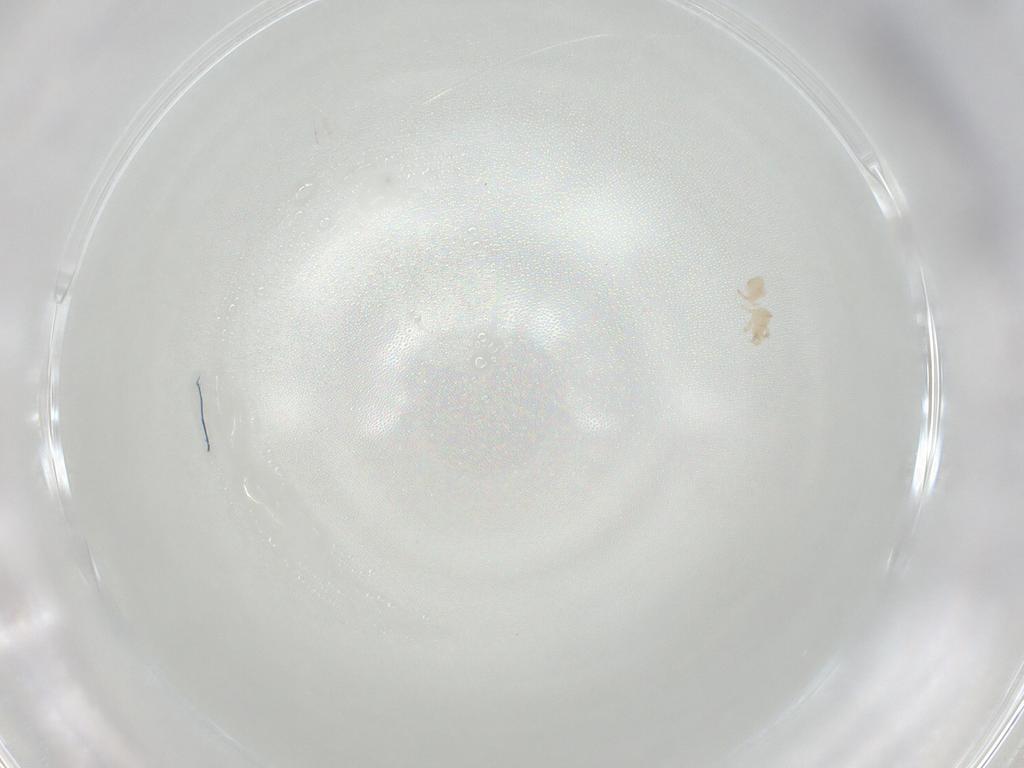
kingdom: Animalia
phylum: Arthropoda
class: Arachnida
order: Mesostigmata
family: Ascidae
